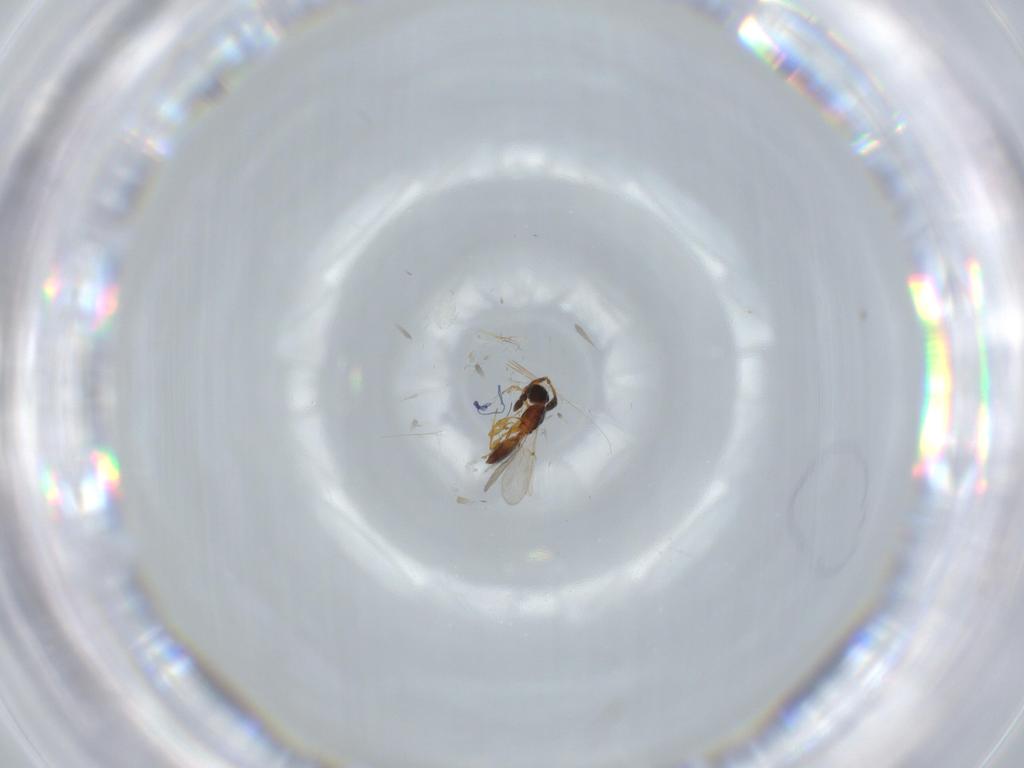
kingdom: Animalia
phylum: Arthropoda
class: Insecta
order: Hymenoptera
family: Diapriidae
